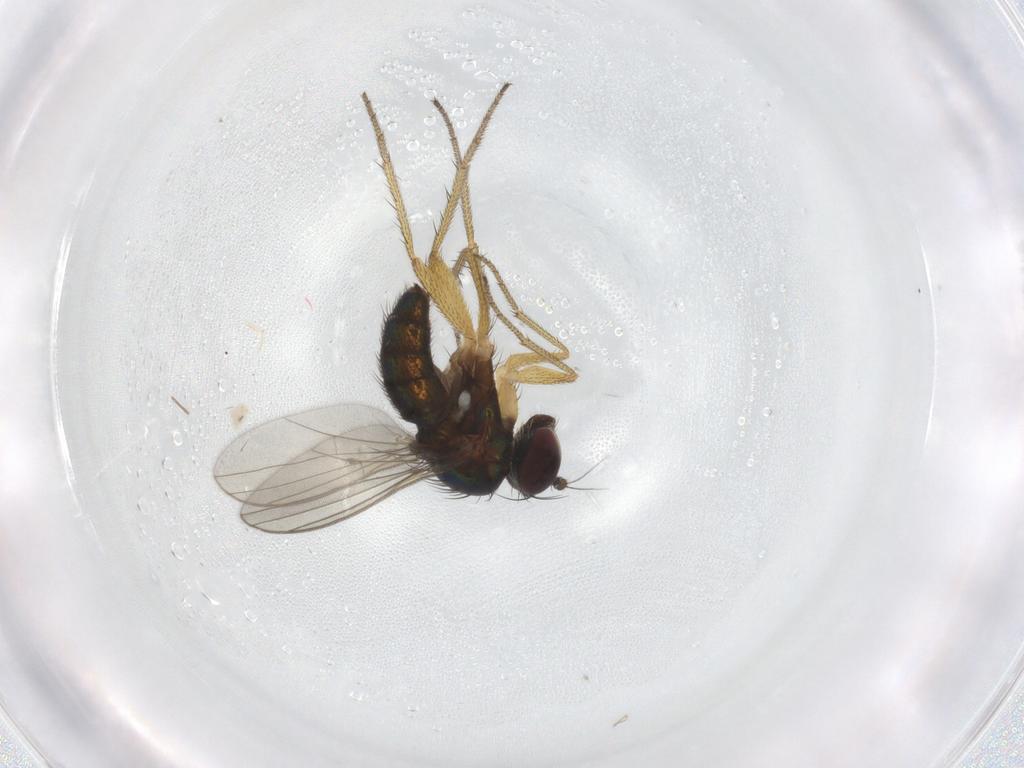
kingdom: Animalia
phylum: Arthropoda
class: Insecta
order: Diptera
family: Dolichopodidae
